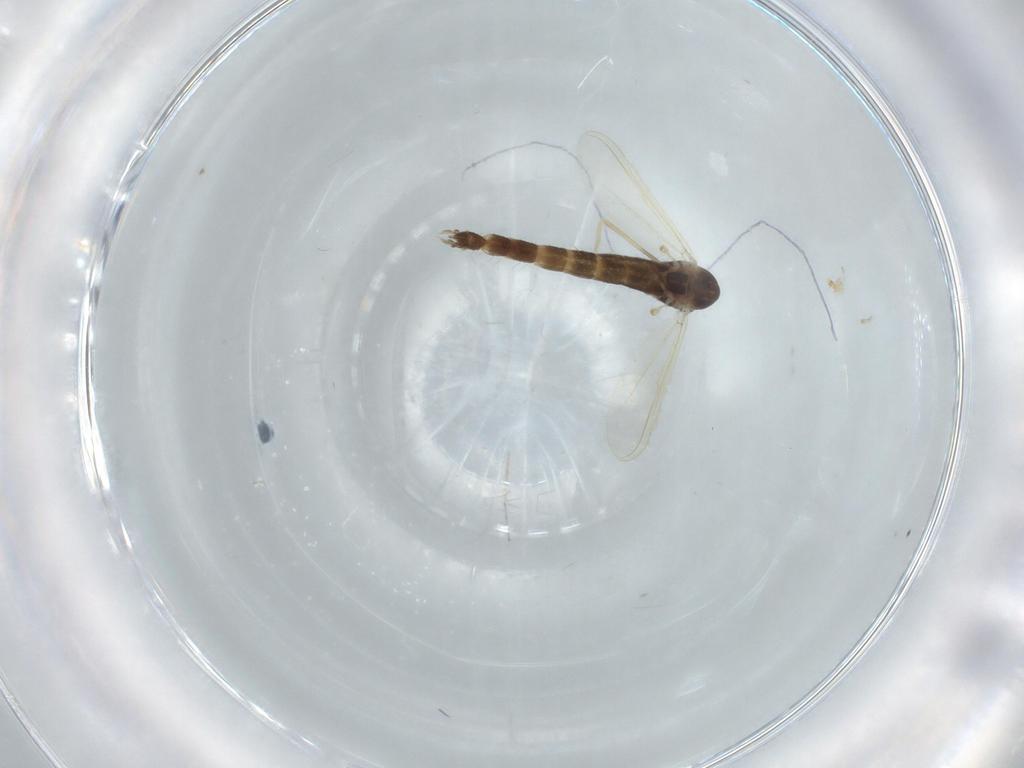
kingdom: Animalia
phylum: Arthropoda
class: Insecta
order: Diptera
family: Chironomidae
